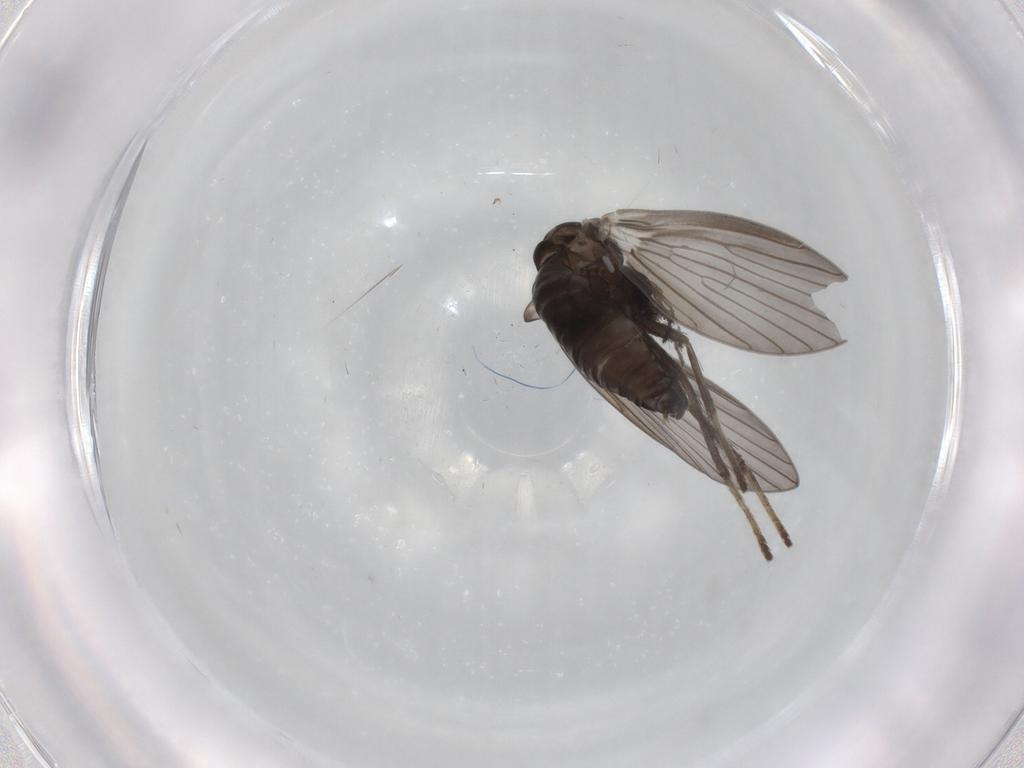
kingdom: Animalia
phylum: Arthropoda
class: Insecta
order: Diptera
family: Psychodidae
